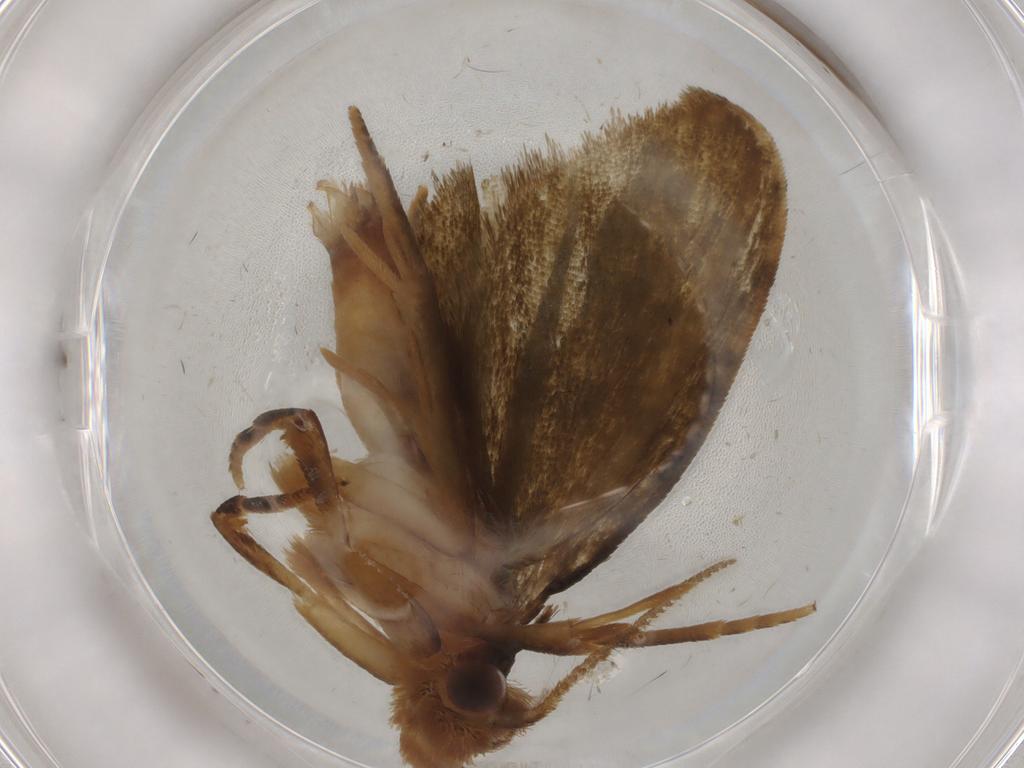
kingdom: Animalia
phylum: Arthropoda
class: Insecta
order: Lepidoptera
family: Geometridae
